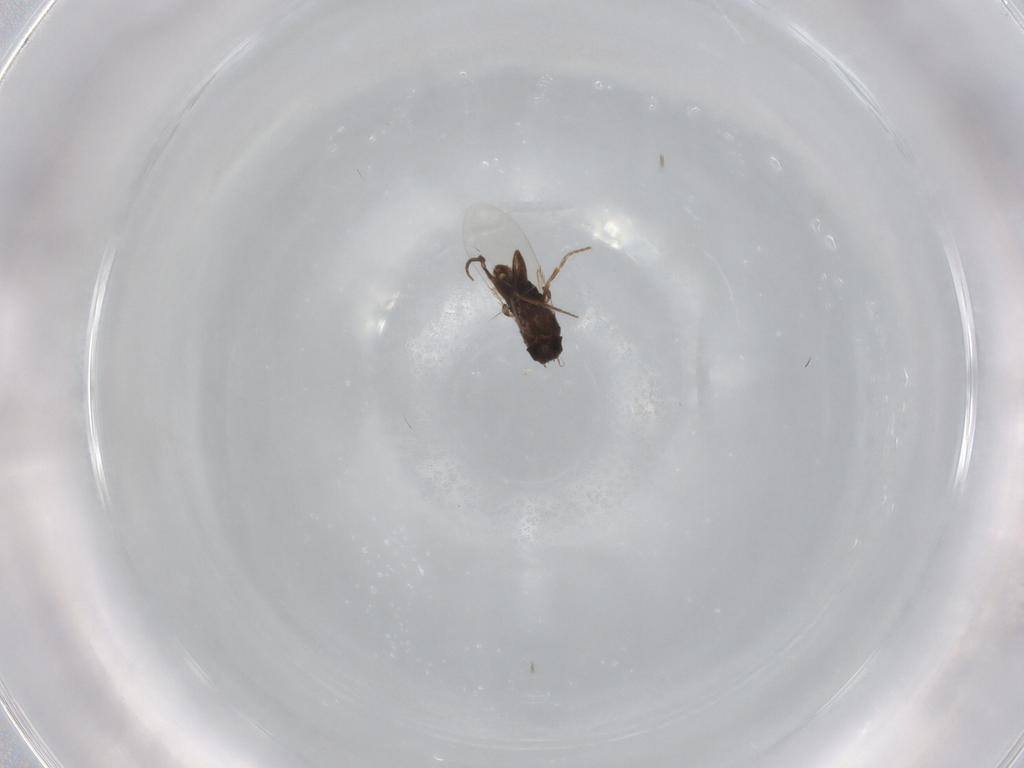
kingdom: Animalia
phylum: Arthropoda
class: Insecta
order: Diptera
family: Phoridae
